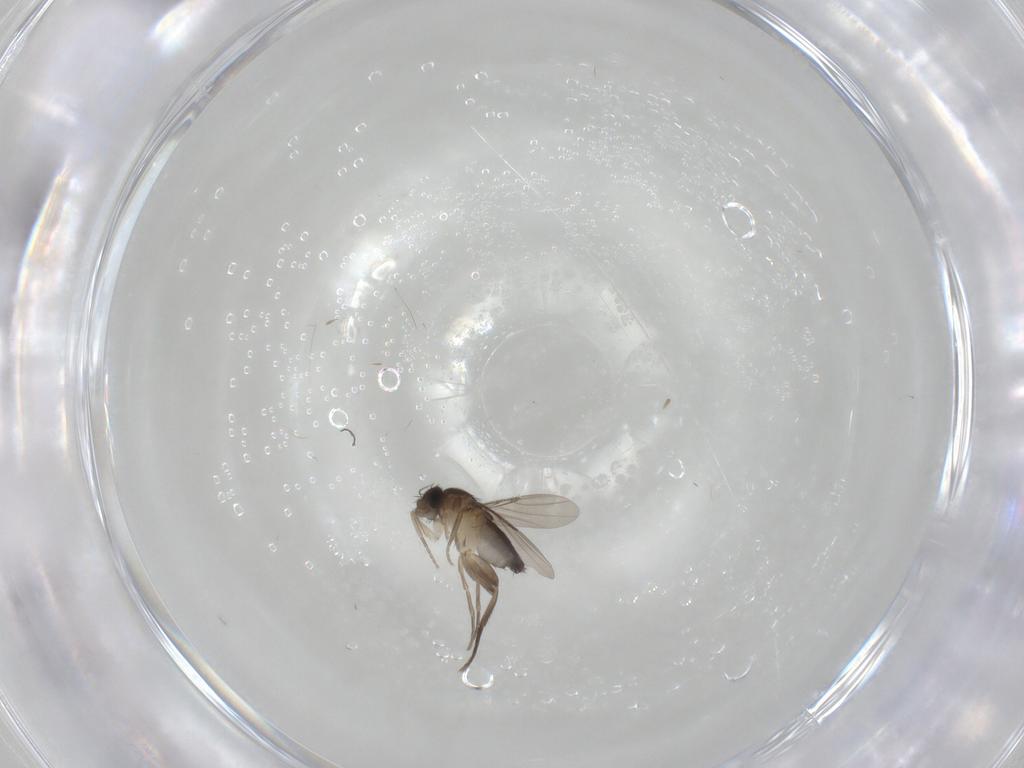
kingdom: Animalia
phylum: Arthropoda
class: Insecta
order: Diptera
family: Phoridae
